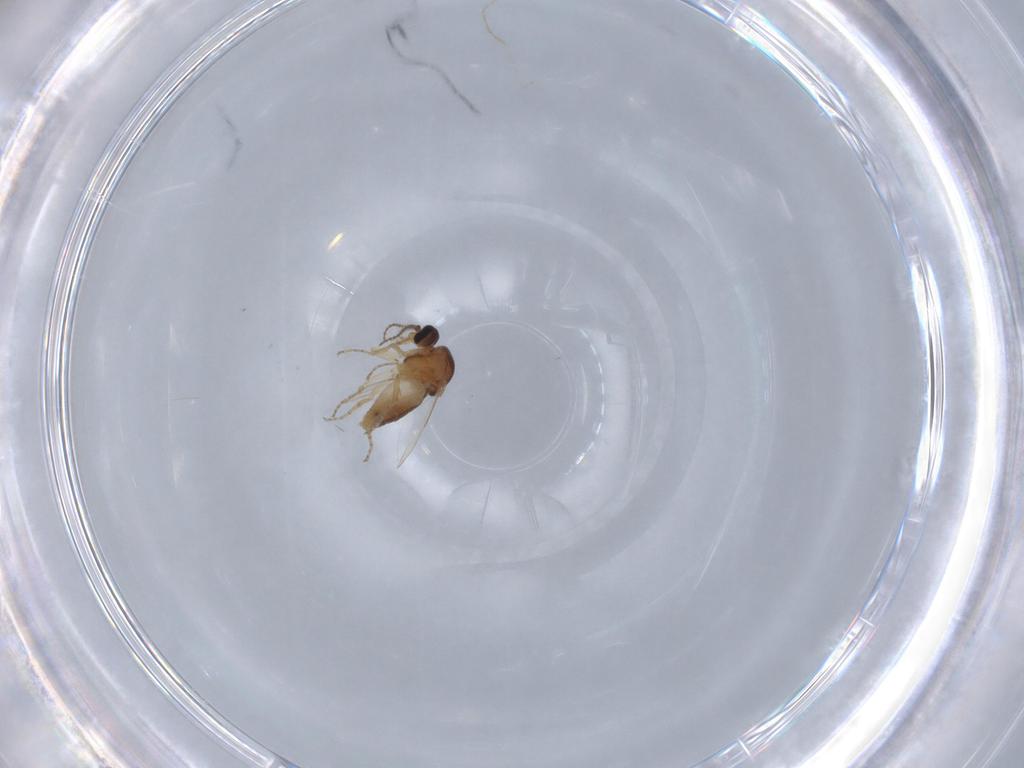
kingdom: Animalia
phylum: Arthropoda
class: Insecta
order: Diptera
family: Ceratopogonidae
